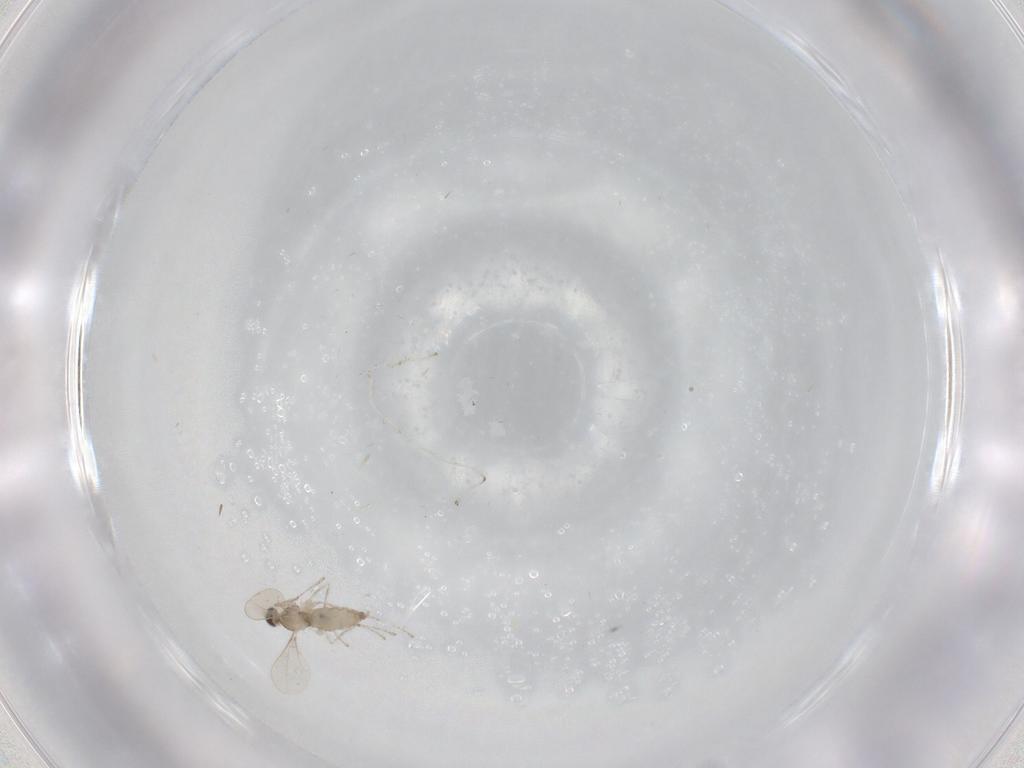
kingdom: Animalia
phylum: Arthropoda
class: Insecta
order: Diptera
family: Cecidomyiidae
